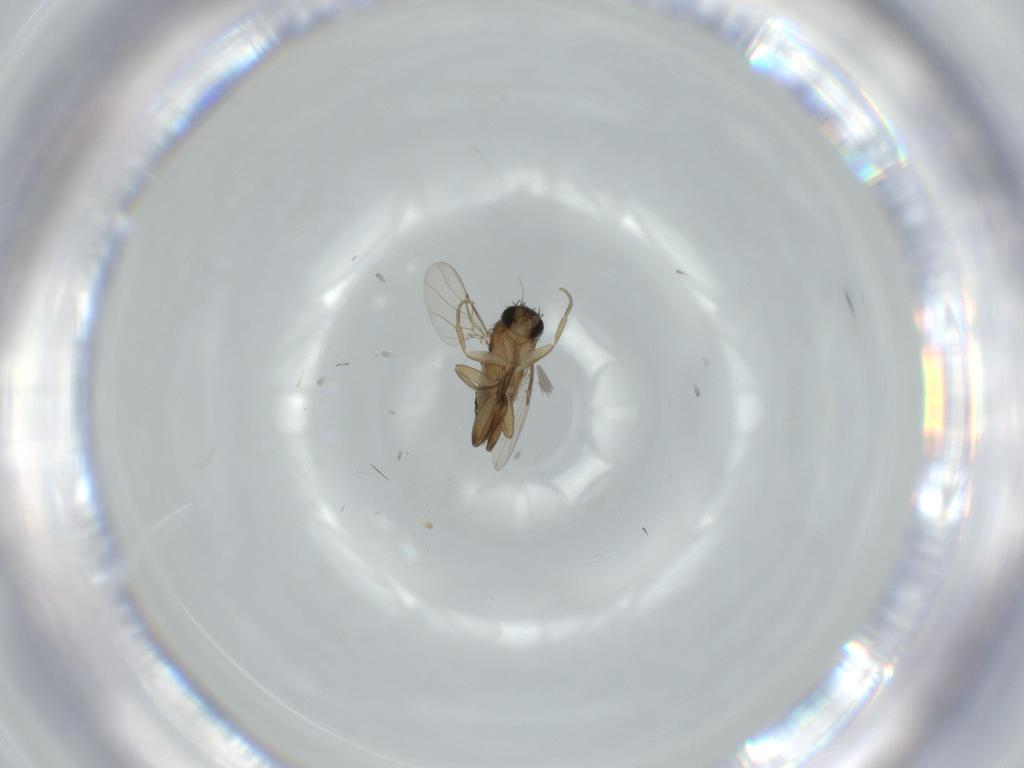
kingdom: Animalia
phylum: Arthropoda
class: Insecta
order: Diptera
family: Phoridae
